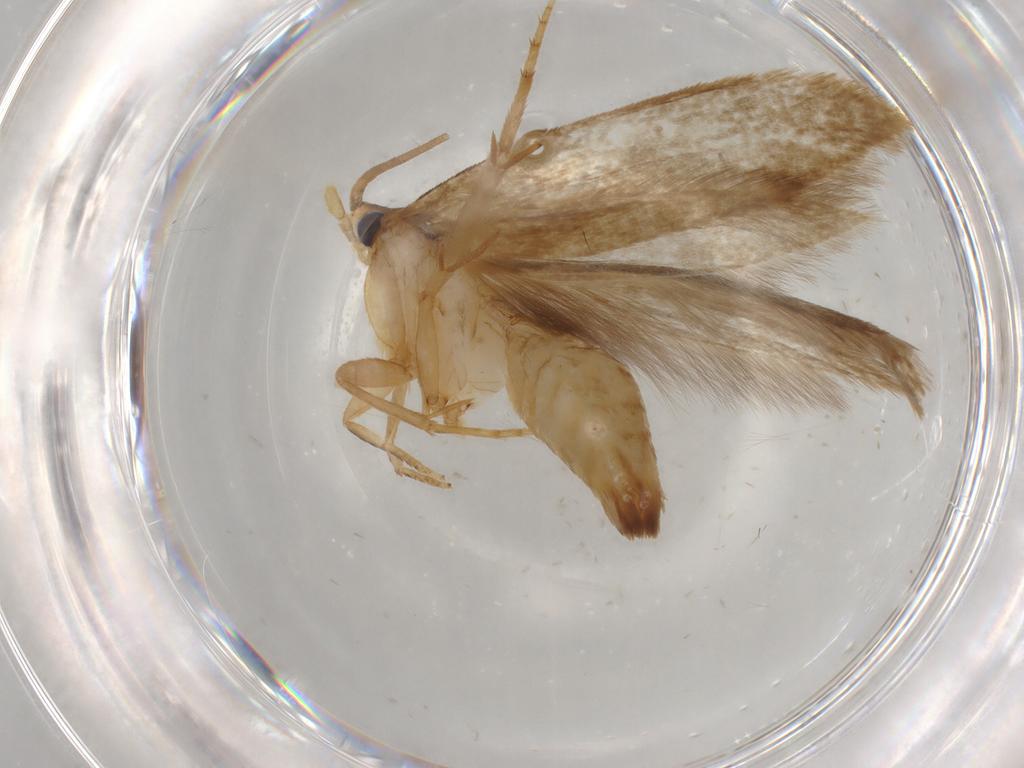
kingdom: Animalia
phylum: Arthropoda
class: Insecta
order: Lepidoptera
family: Tineidae
